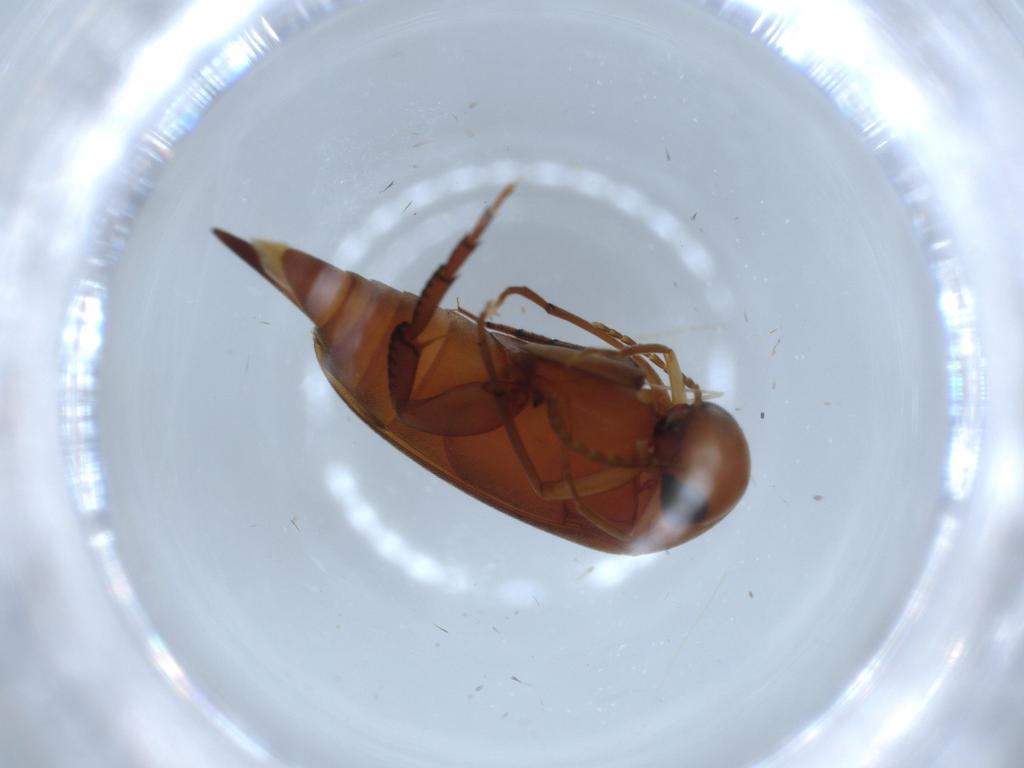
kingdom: Animalia
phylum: Arthropoda
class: Insecta
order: Coleoptera
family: Mordellidae
